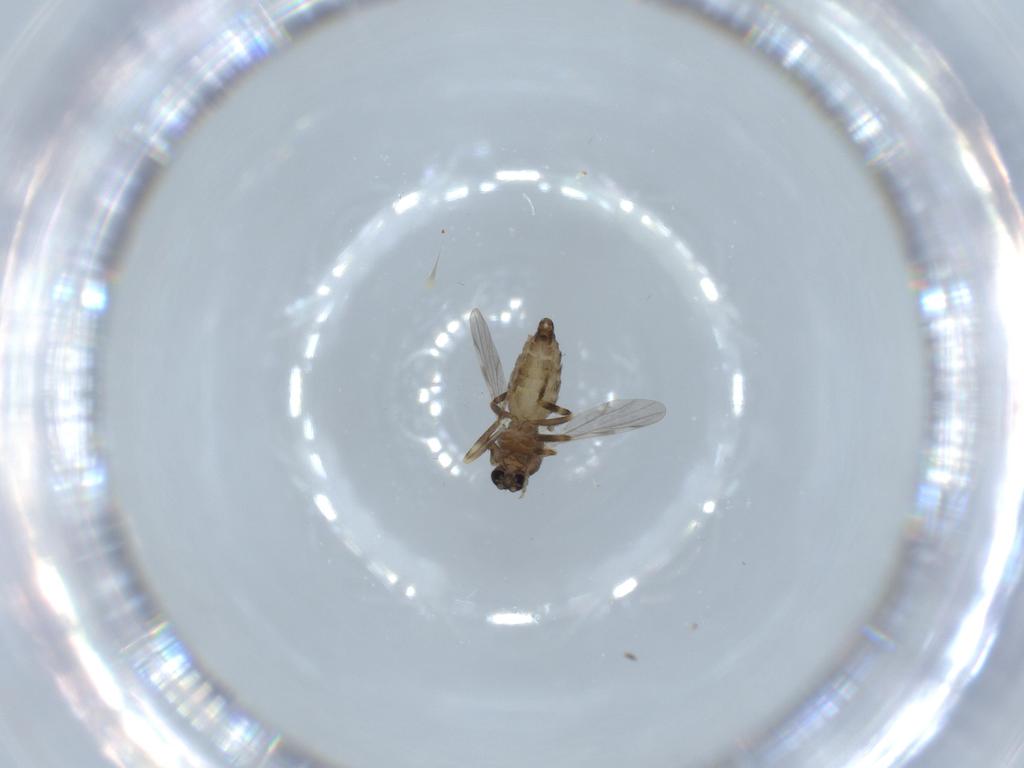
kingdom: Animalia
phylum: Arthropoda
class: Insecta
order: Diptera
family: Ceratopogonidae
